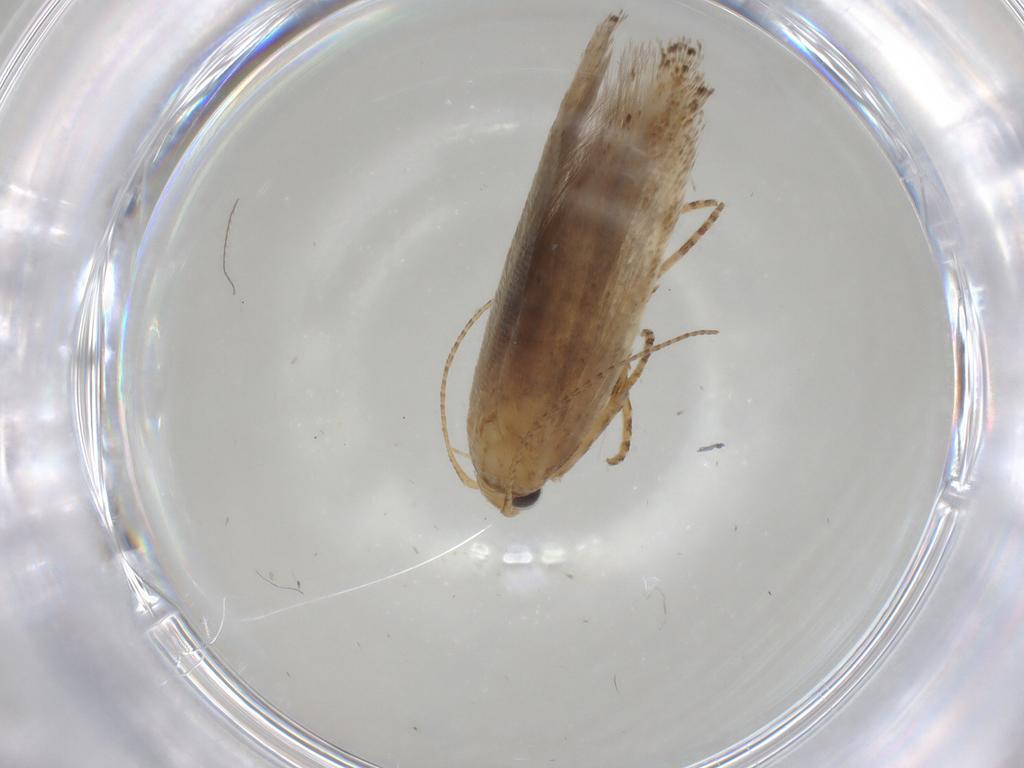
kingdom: Animalia
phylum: Arthropoda
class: Insecta
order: Lepidoptera
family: Gelechiidae
